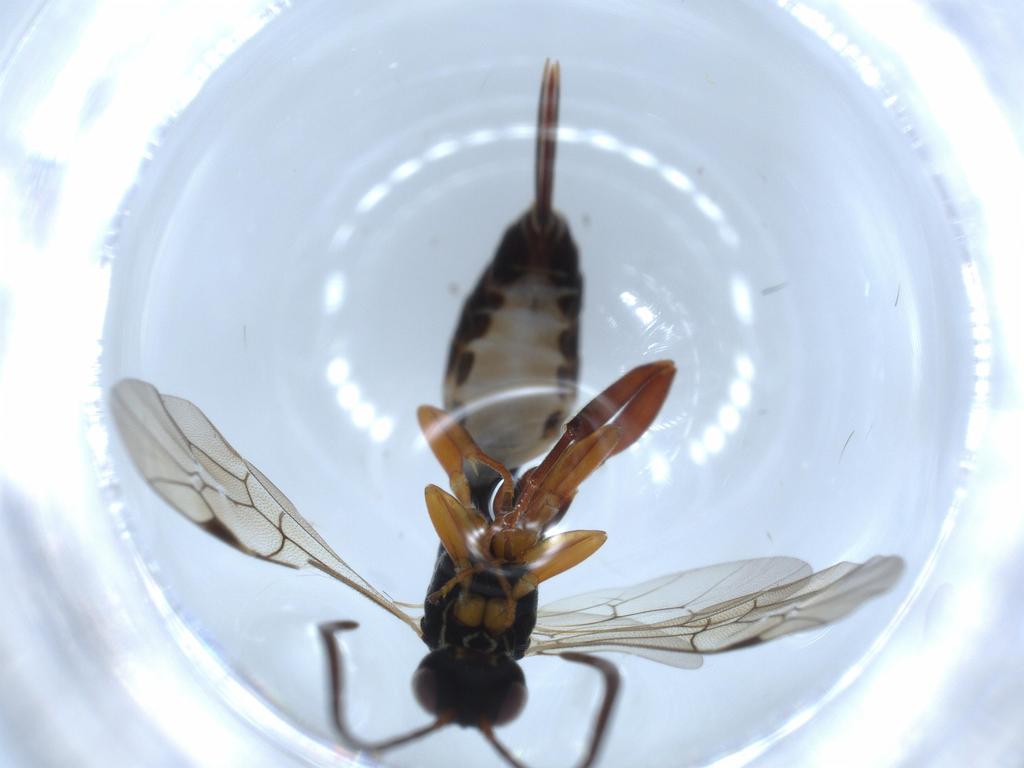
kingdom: Animalia
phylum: Arthropoda
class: Insecta
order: Hymenoptera
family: Ichneumonidae
